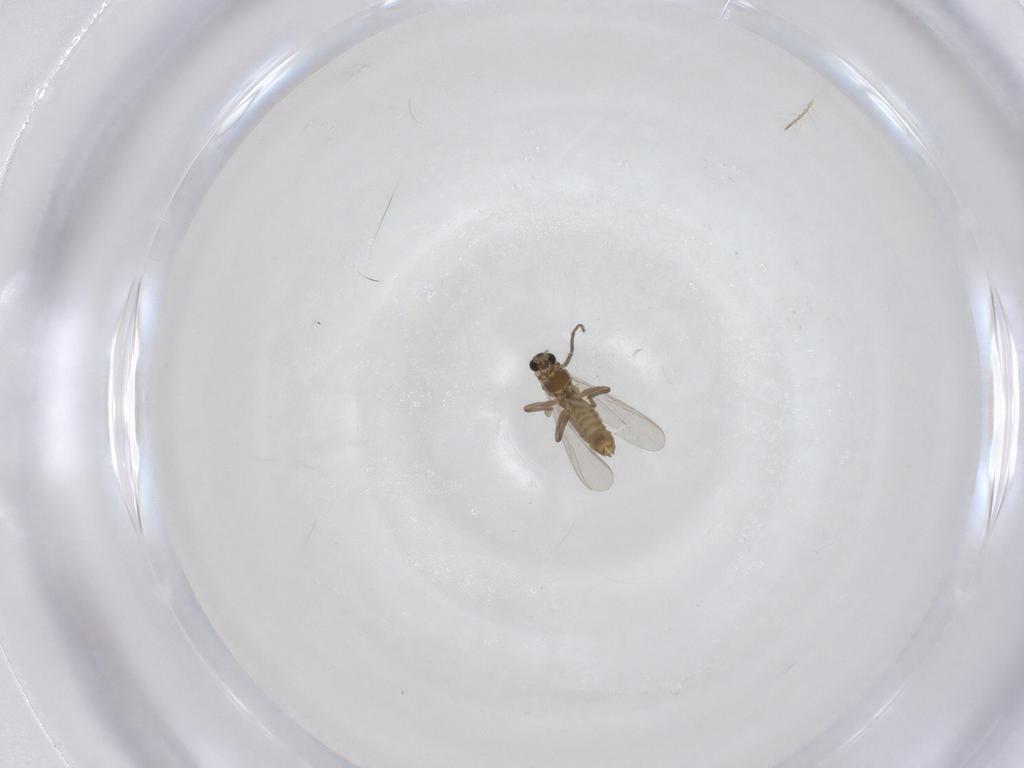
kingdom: Animalia
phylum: Arthropoda
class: Insecta
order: Diptera
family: Chironomidae
